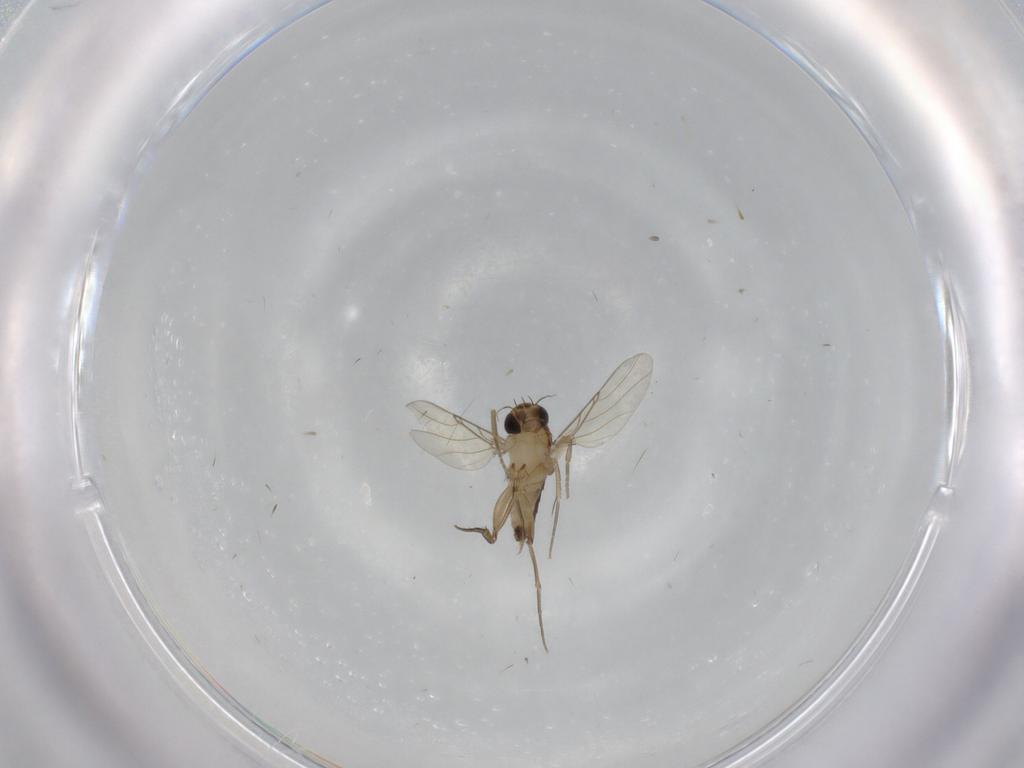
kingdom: Animalia
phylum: Arthropoda
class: Insecta
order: Diptera
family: Phoridae
